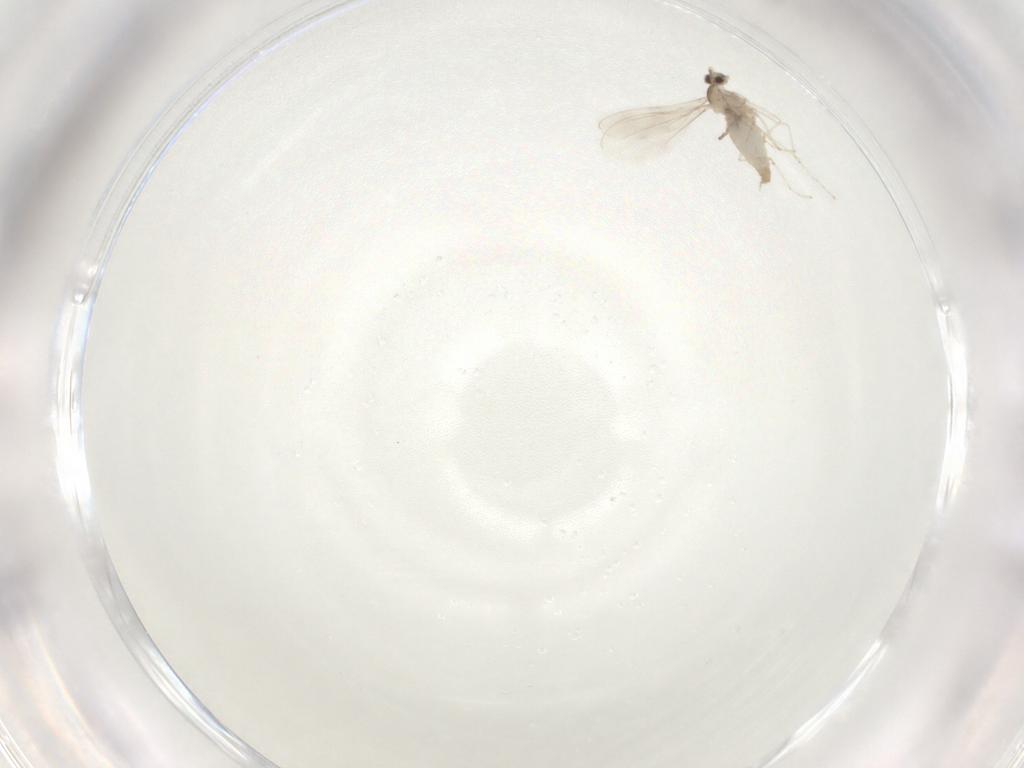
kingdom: Animalia
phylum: Arthropoda
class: Insecta
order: Diptera
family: Cecidomyiidae
